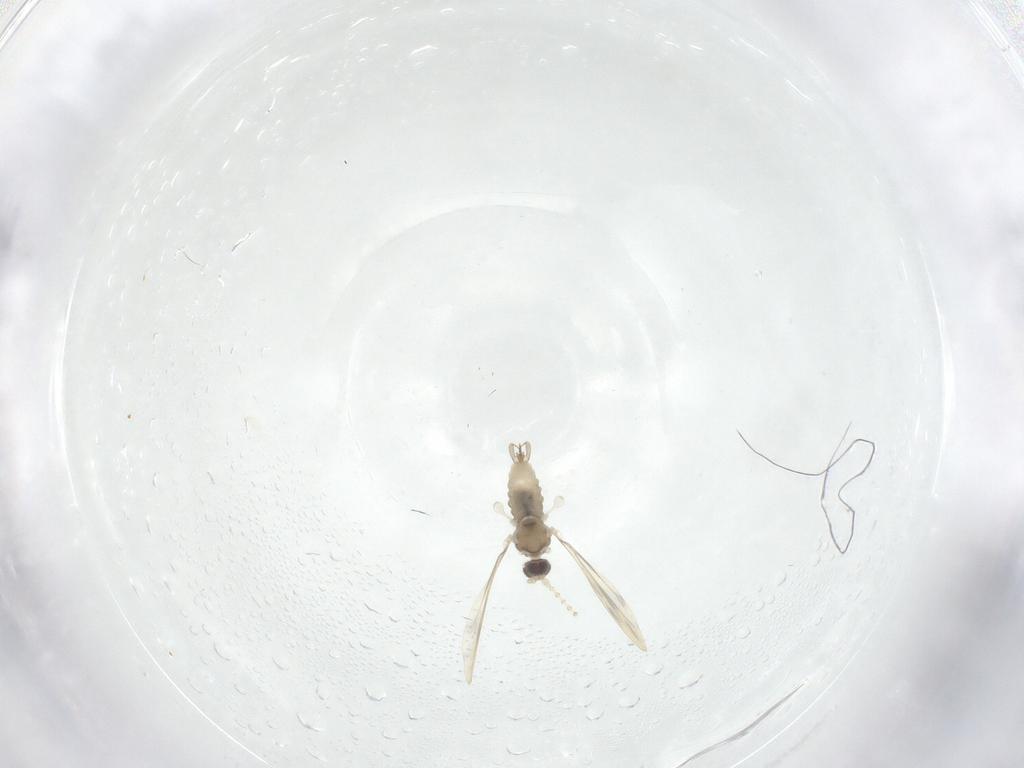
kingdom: Animalia
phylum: Arthropoda
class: Insecta
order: Diptera
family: Cecidomyiidae
